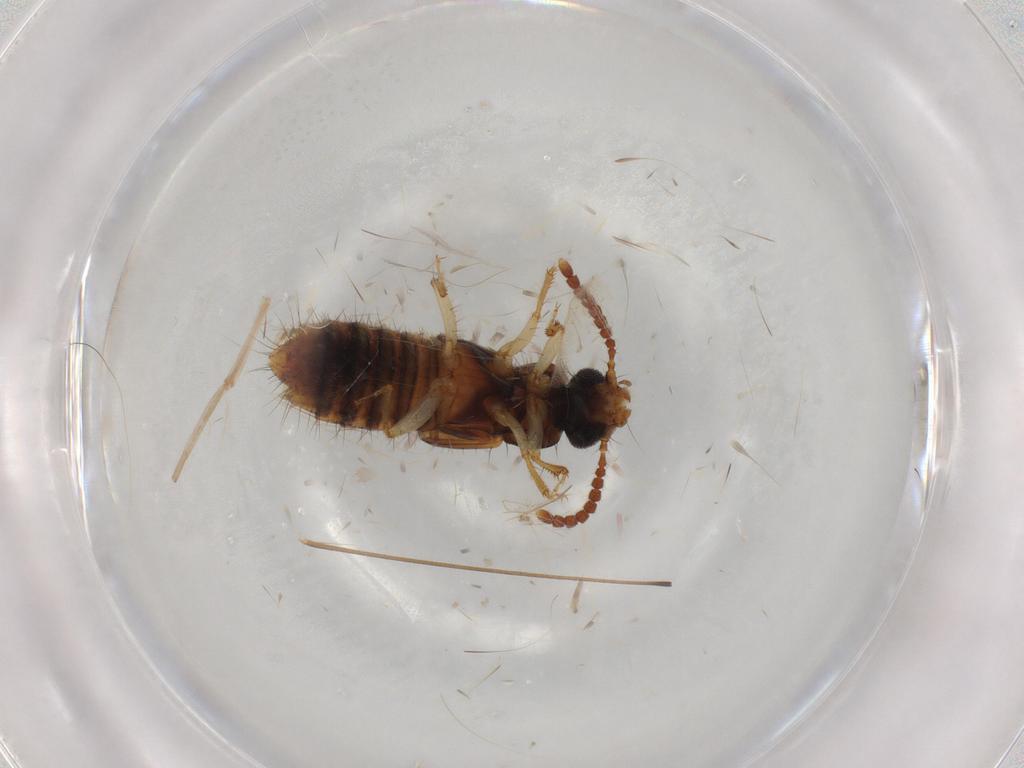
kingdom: Animalia
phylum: Arthropoda
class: Insecta
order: Coleoptera
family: Staphylinidae
